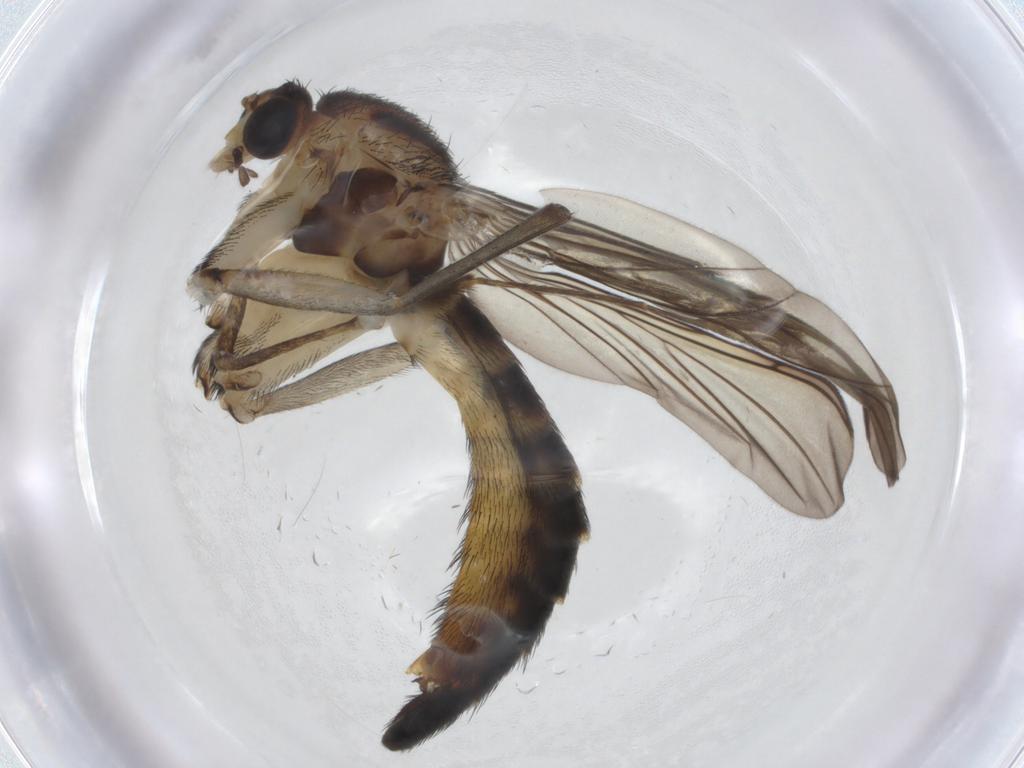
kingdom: Animalia
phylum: Arthropoda
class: Insecta
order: Diptera
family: Keroplatidae
